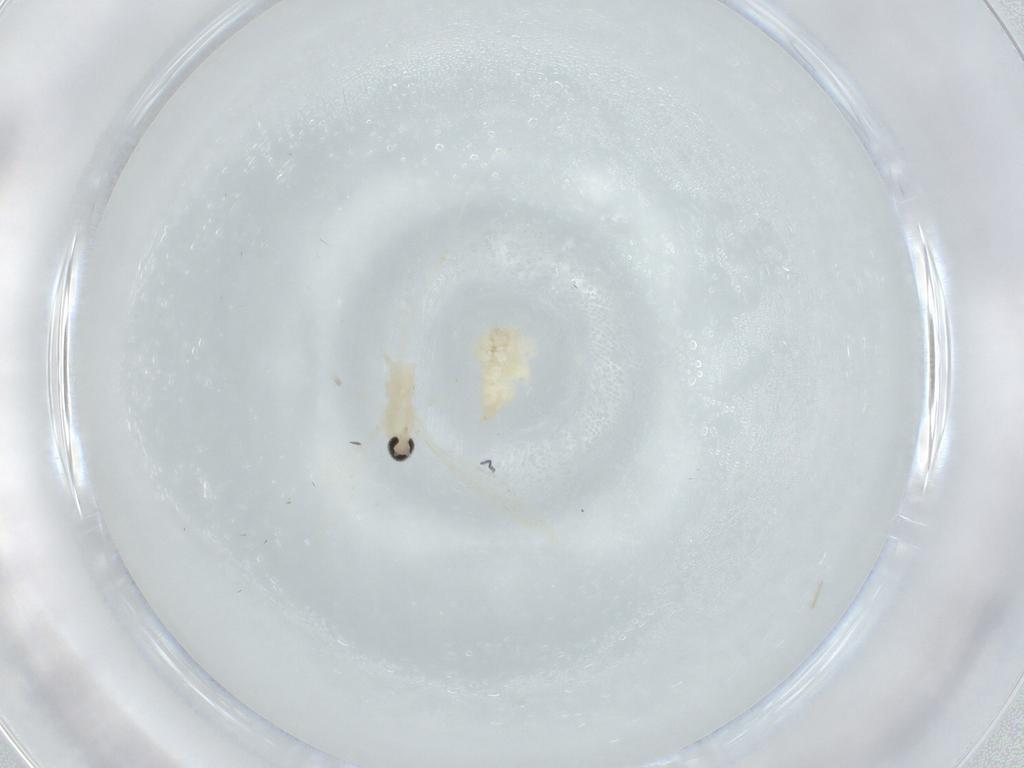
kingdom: Animalia
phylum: Arthropoda
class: Insecta
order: Diptera
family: Cecidomyiidae
